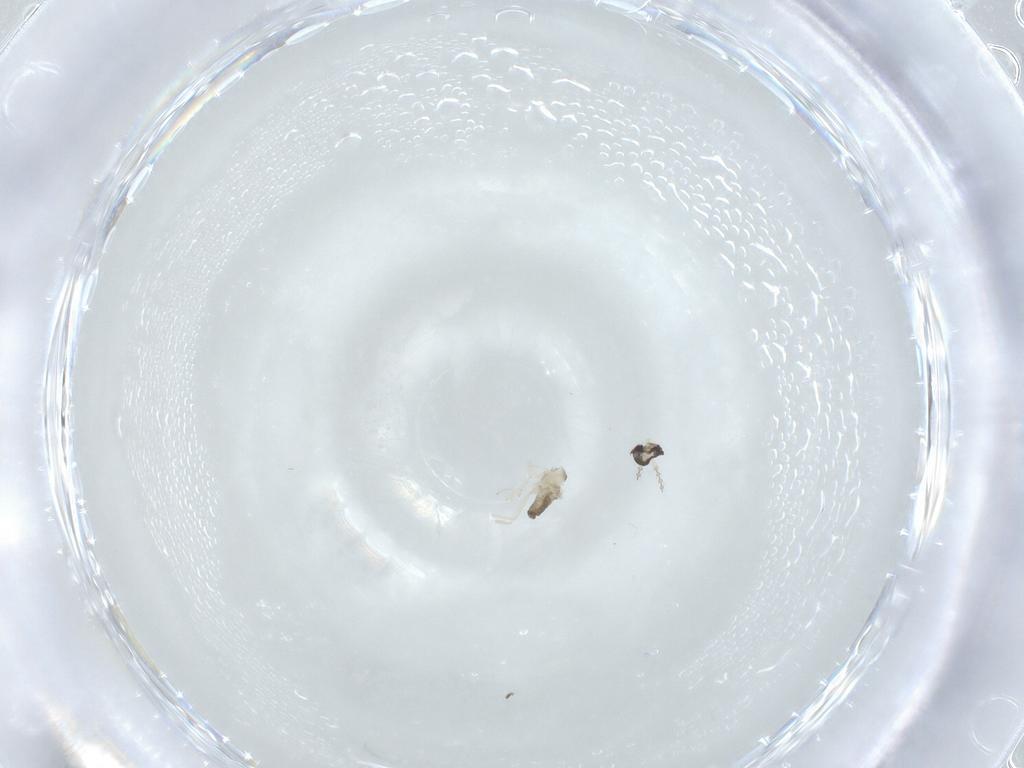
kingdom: Animalia
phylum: Arthropoda
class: Insecta
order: Diptera
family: Cecidomyiidae
